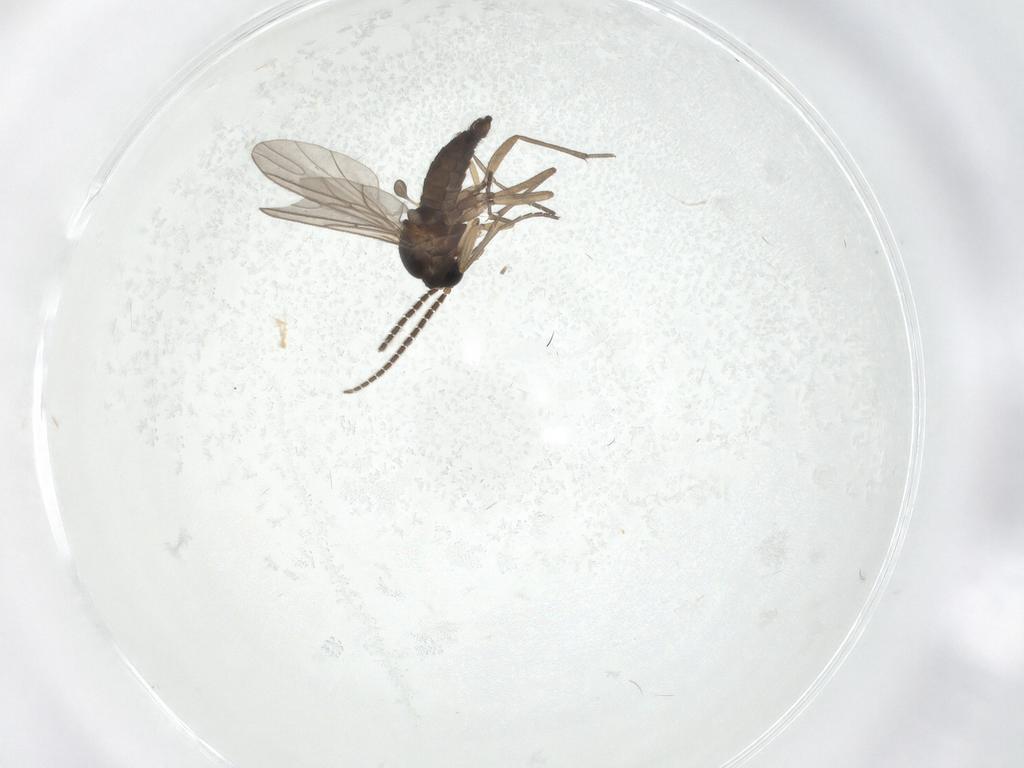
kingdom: Animalia
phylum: Arthropoda
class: Insecta
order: Diptera
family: Sciaridae
